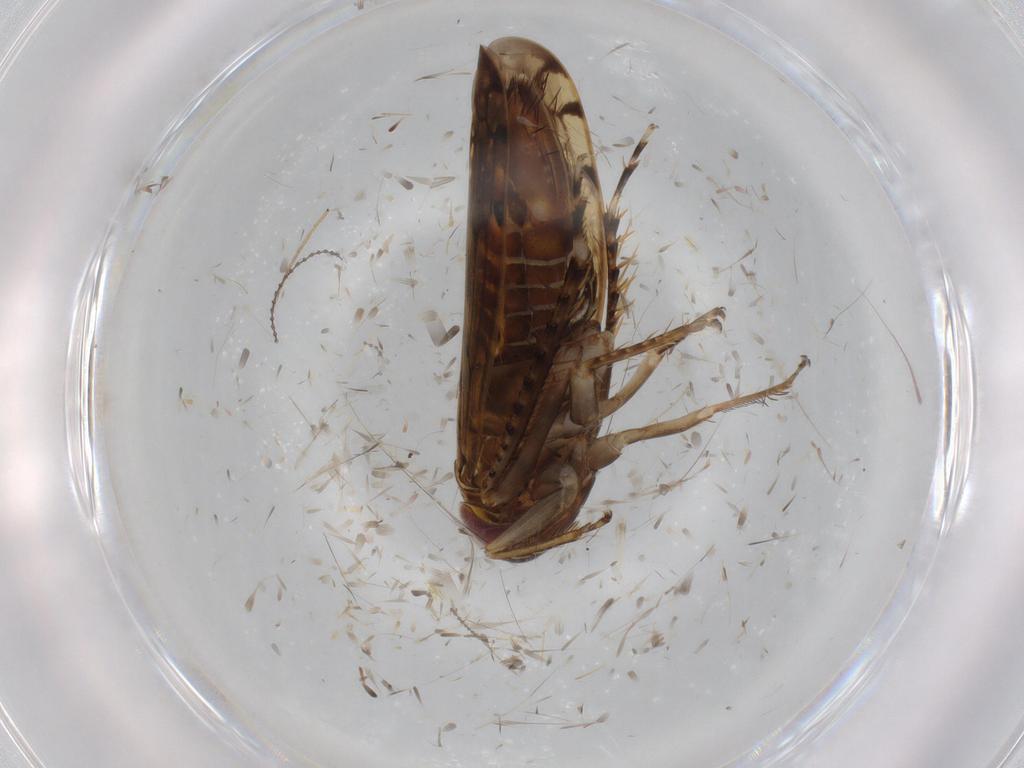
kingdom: Animalia
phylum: Arthropoda
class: Insecta
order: Hemiptera
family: Cicadellidae
